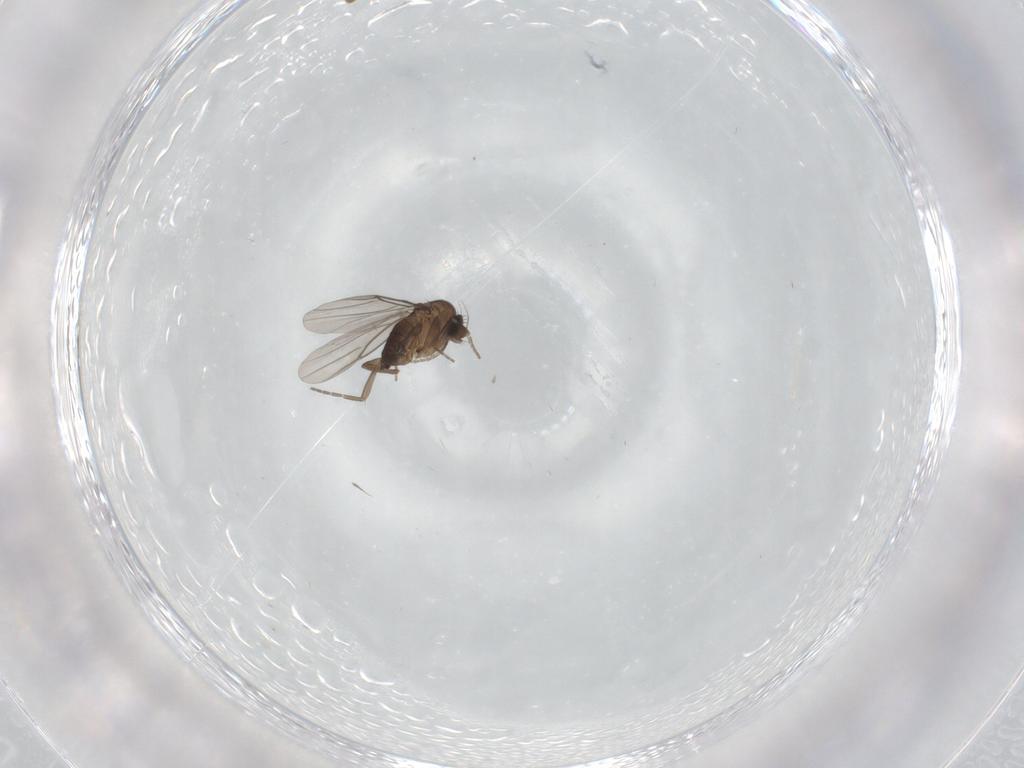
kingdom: Animalia
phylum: Arthropoda
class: Insecta
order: Diptera
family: Phoridae
